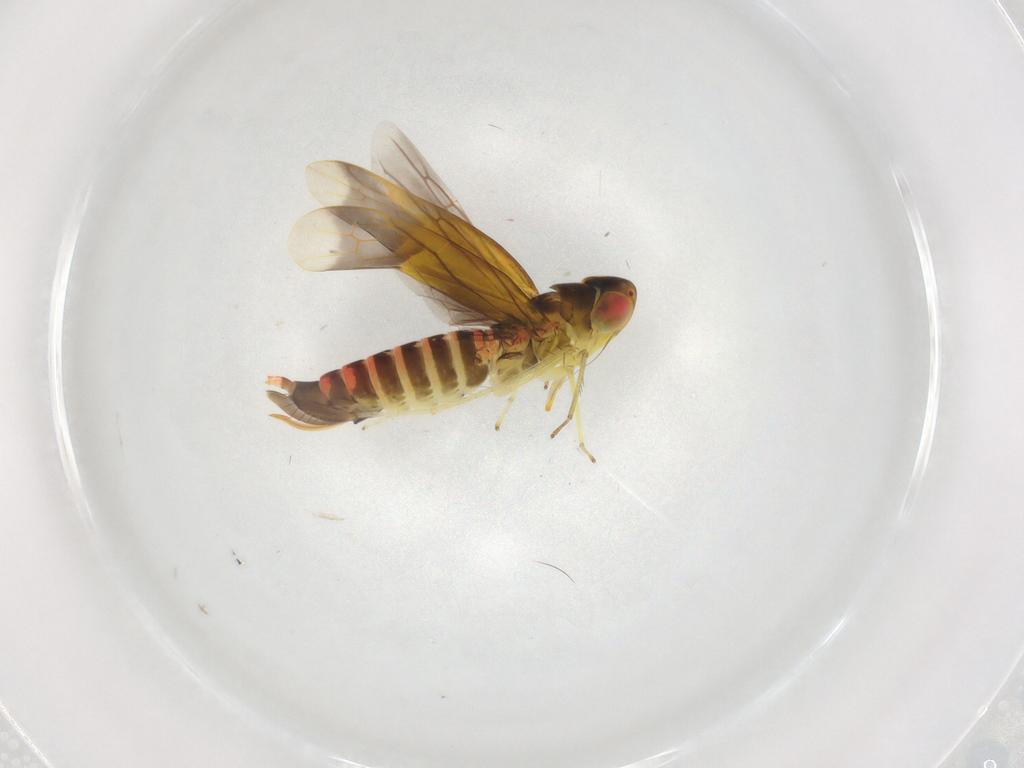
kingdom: Animalia
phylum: Arthropoda
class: Insecta
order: Hemiptera
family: Cicadellidae
